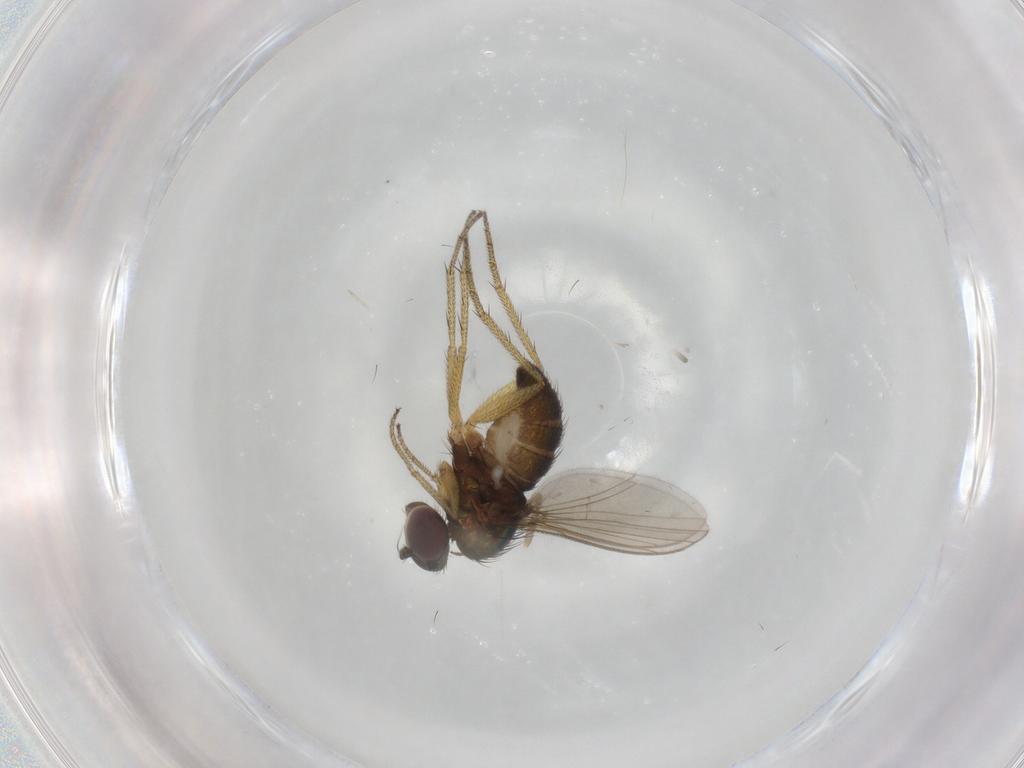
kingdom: Animalia
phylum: Arthropoda
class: Insecta
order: Diptera
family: Dolichopodidae
